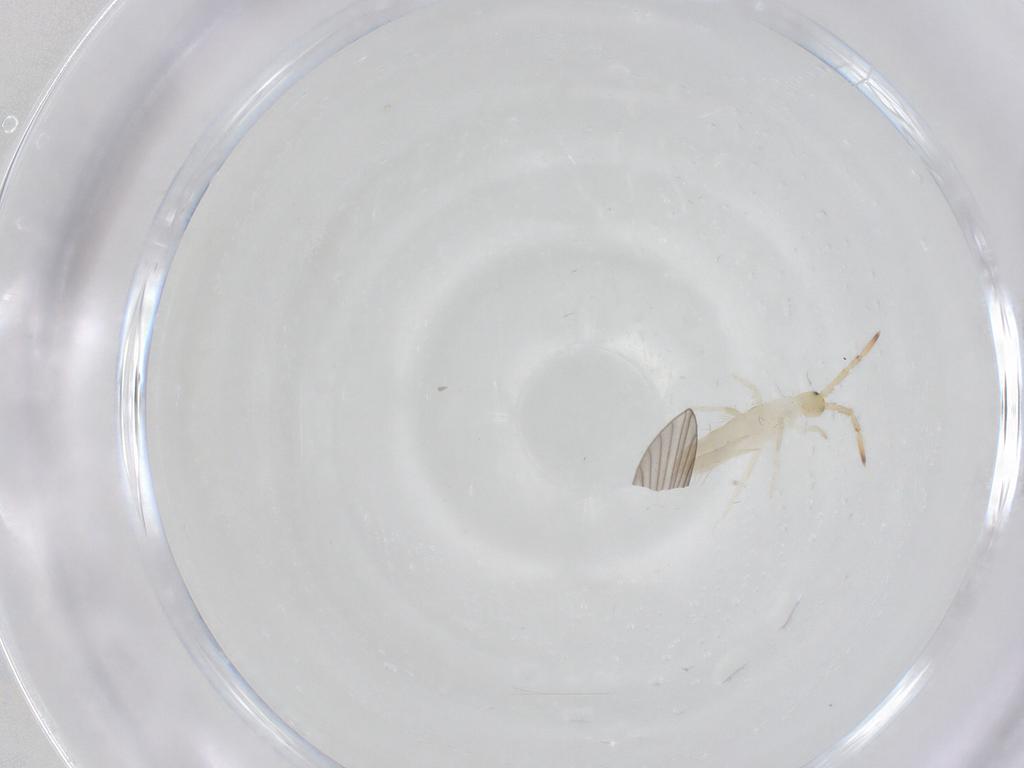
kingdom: Animalia
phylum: Arthropoda
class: Collembola
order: Entomobryomorpha
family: Entomobryidae
